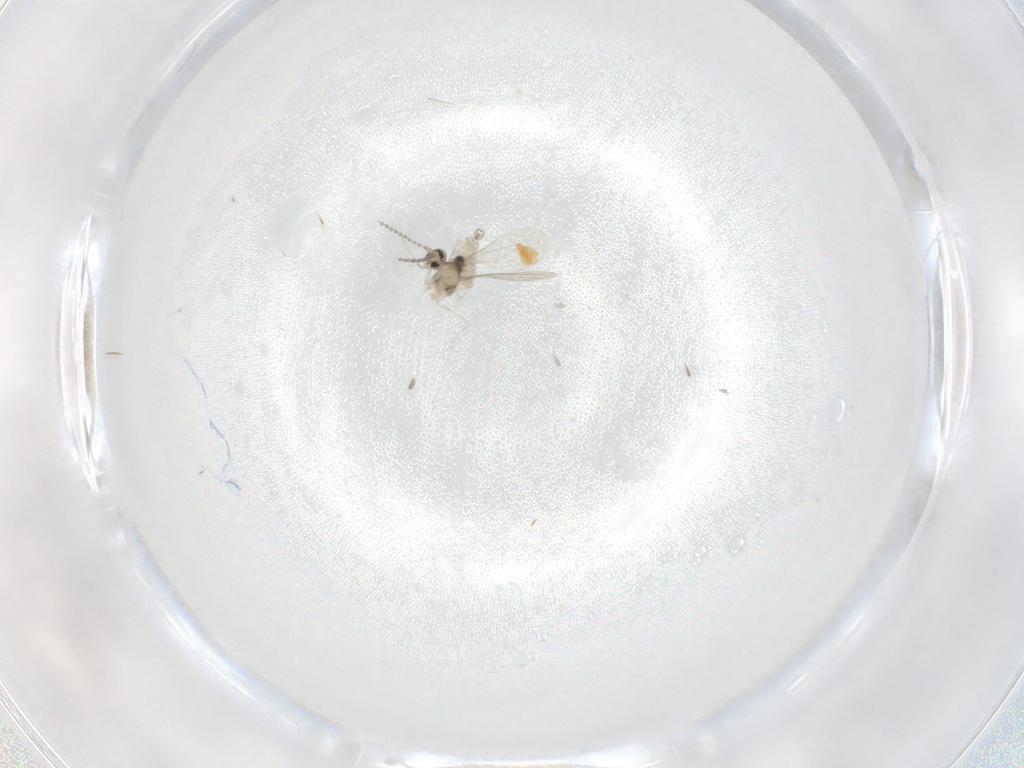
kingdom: Animalia
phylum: Arthropoda
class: Insecta
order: Diptera
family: Cecidomyiidae
